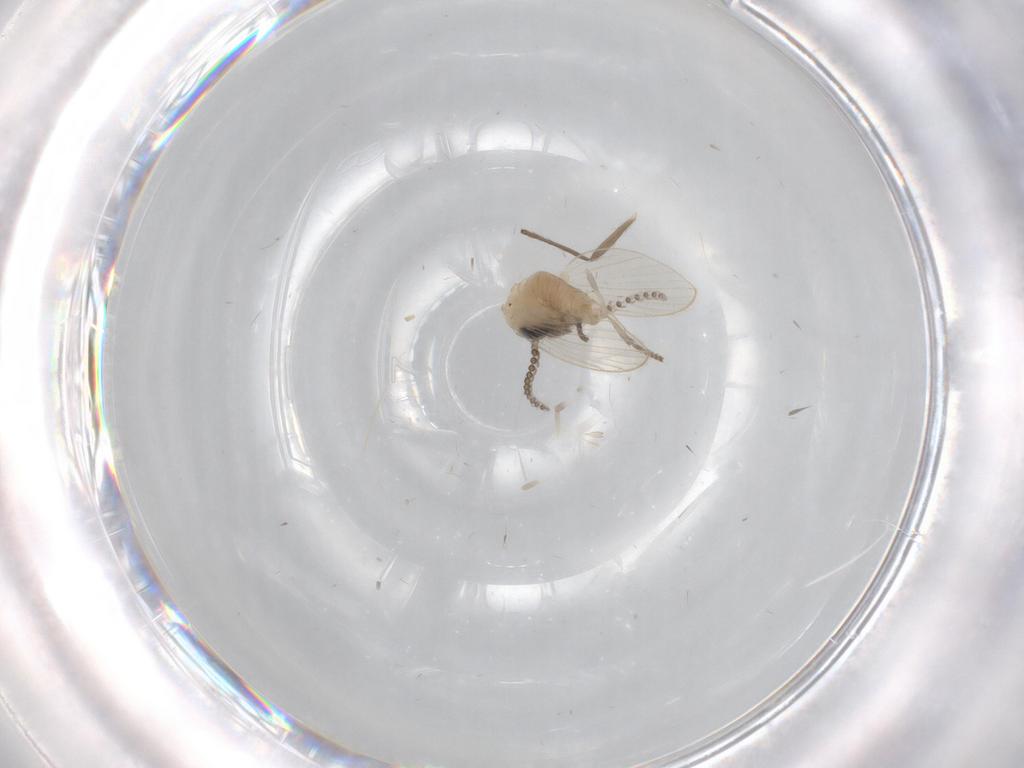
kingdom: Animalia
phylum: Arthropoda
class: Insecta
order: Diptera
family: Psychodidae
